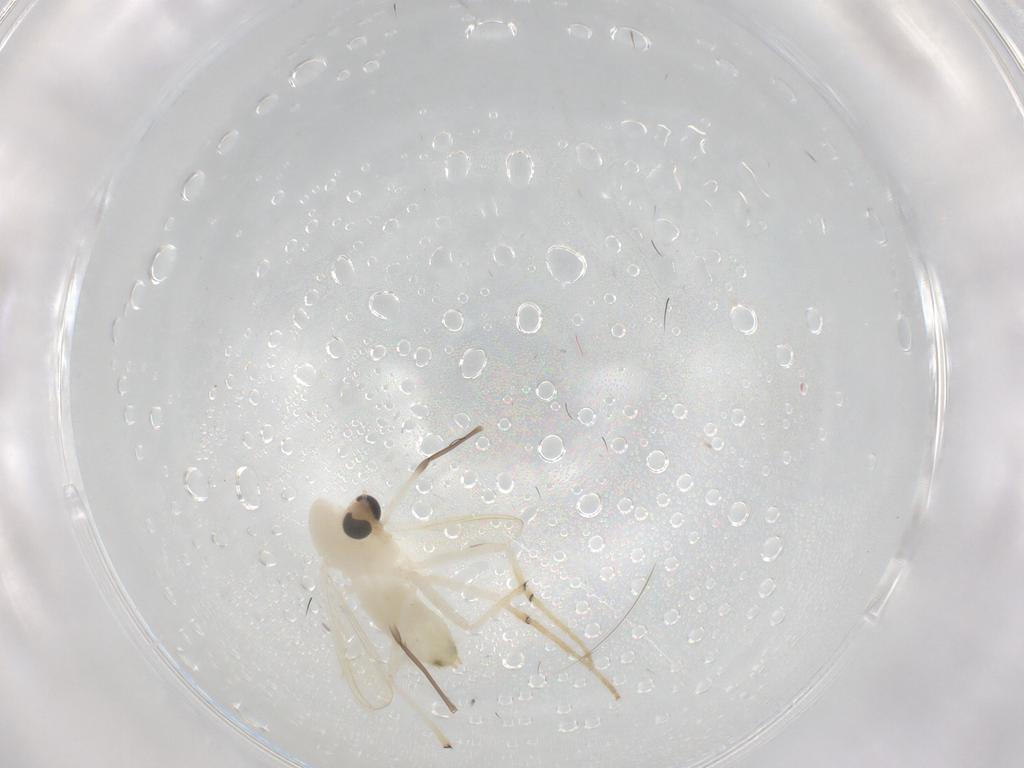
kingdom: Animalia
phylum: Arthropoda
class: Insecta
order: Diptera
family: Chironomidae
